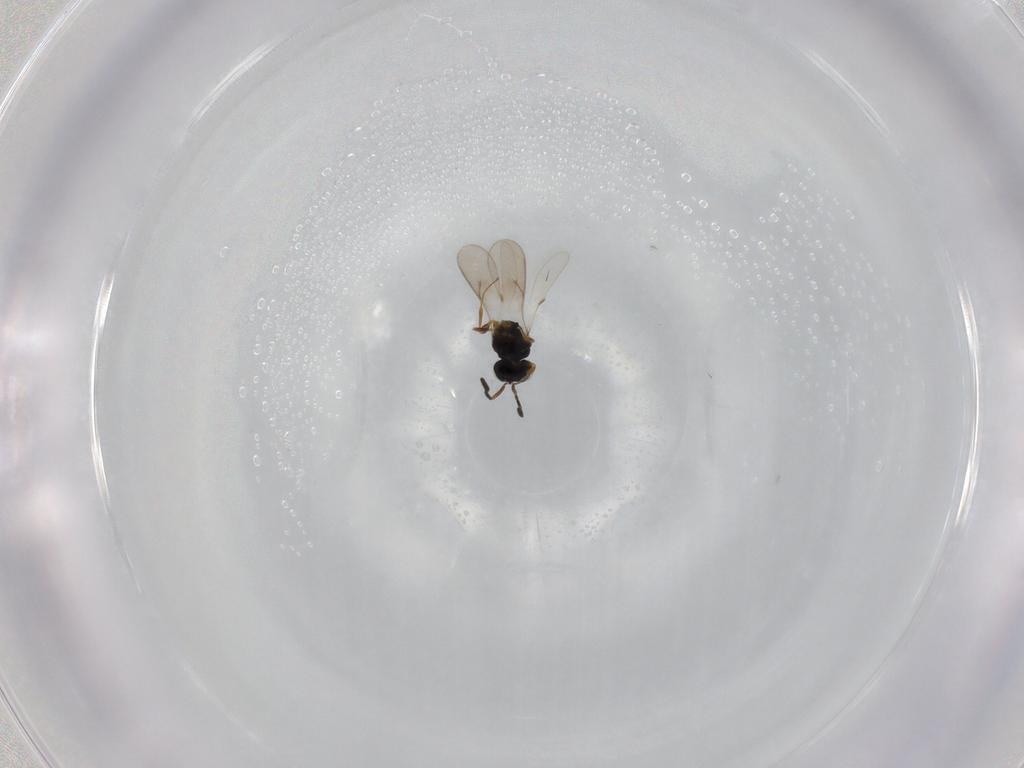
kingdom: Animalia
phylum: Arthropoda
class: Insecta
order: Hymenoptera
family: Scelionidae
